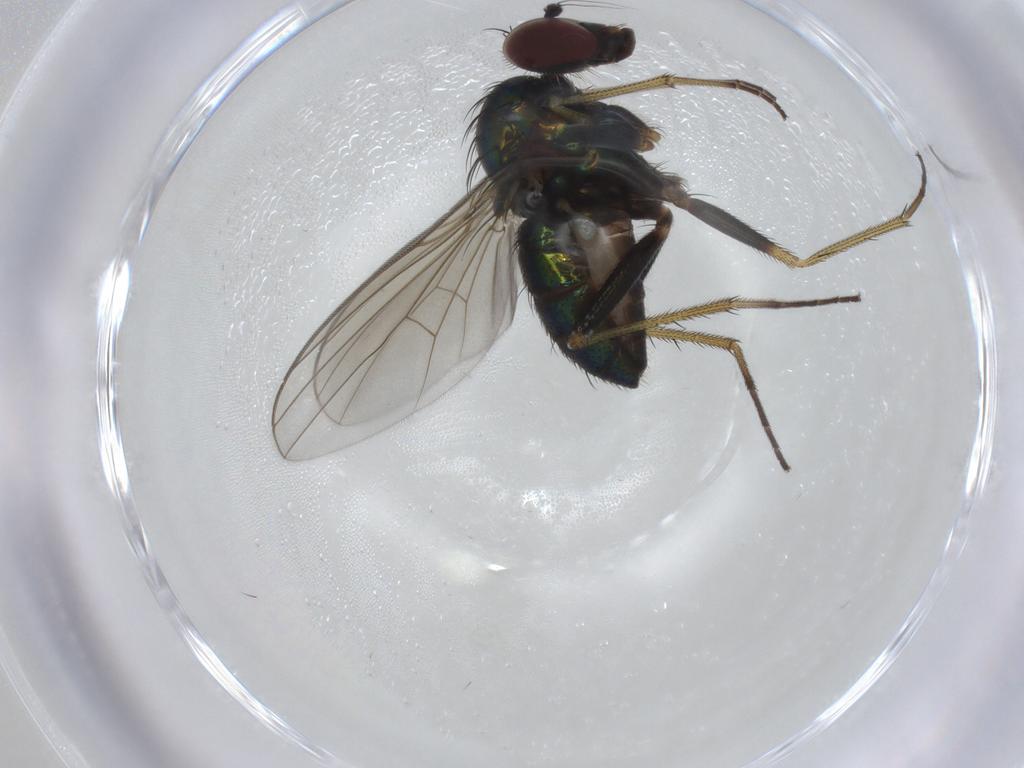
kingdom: Animalia
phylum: Arthropoda
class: Insecta
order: Diptera
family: Dolichopodidae
